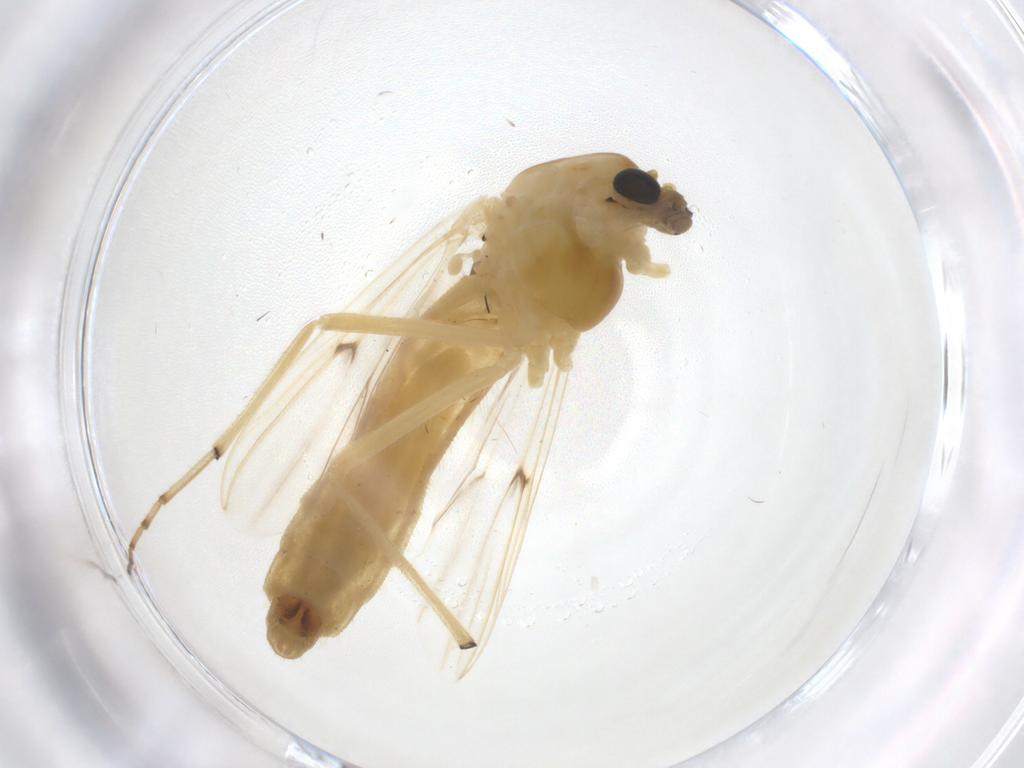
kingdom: Animalia
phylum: Arthropoda
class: Insecta
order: Diptera
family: Chironomidae
